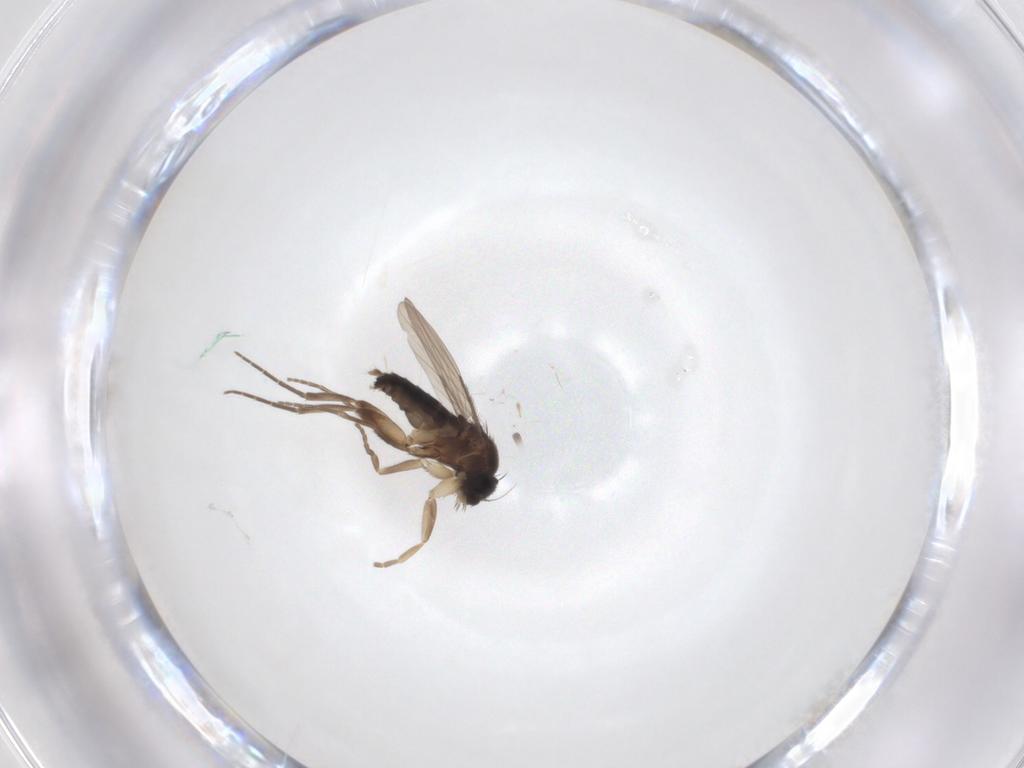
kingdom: Animalia
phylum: Arthropoda
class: Insecta
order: Diptera
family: Phoridae
